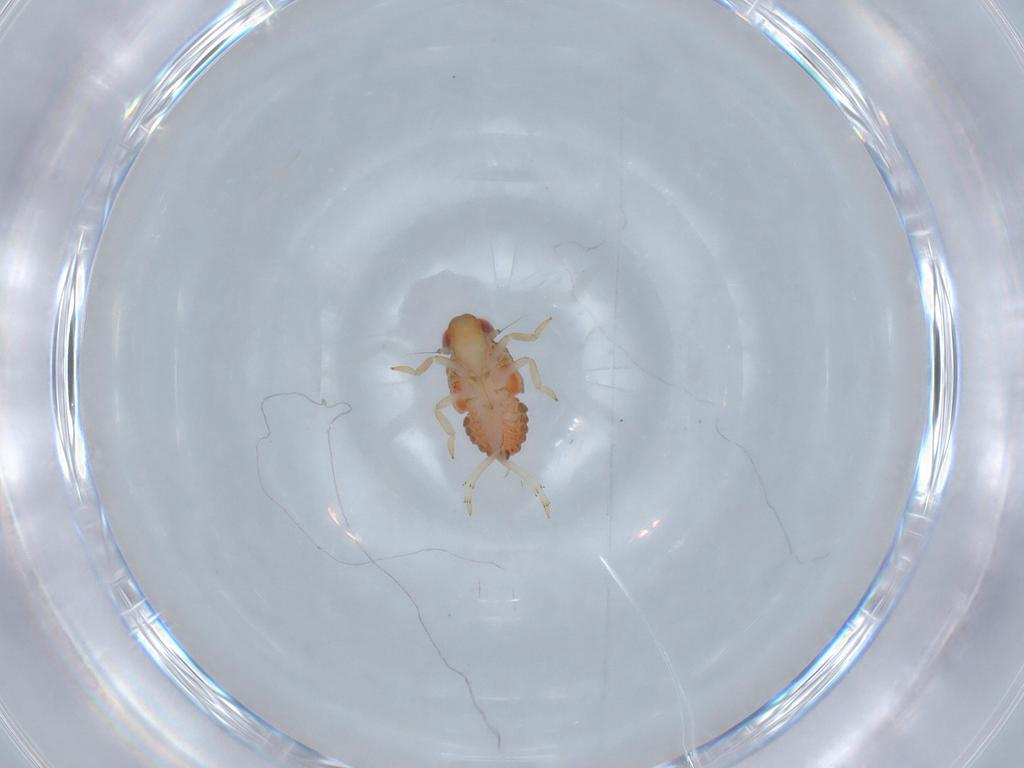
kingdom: Animalia
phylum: Arthropoda
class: Insecta
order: Hemiptera
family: Issidae
